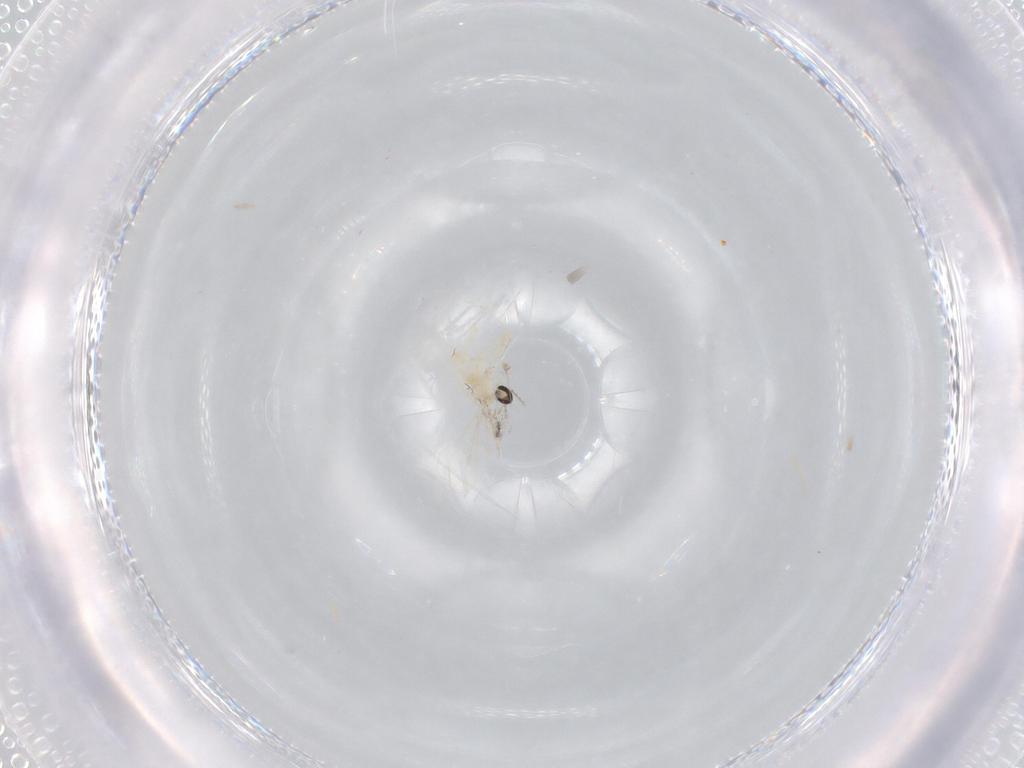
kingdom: Animalia
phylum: Arthropoda
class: Insecta
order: Diptera
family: Cecidomyiidae
